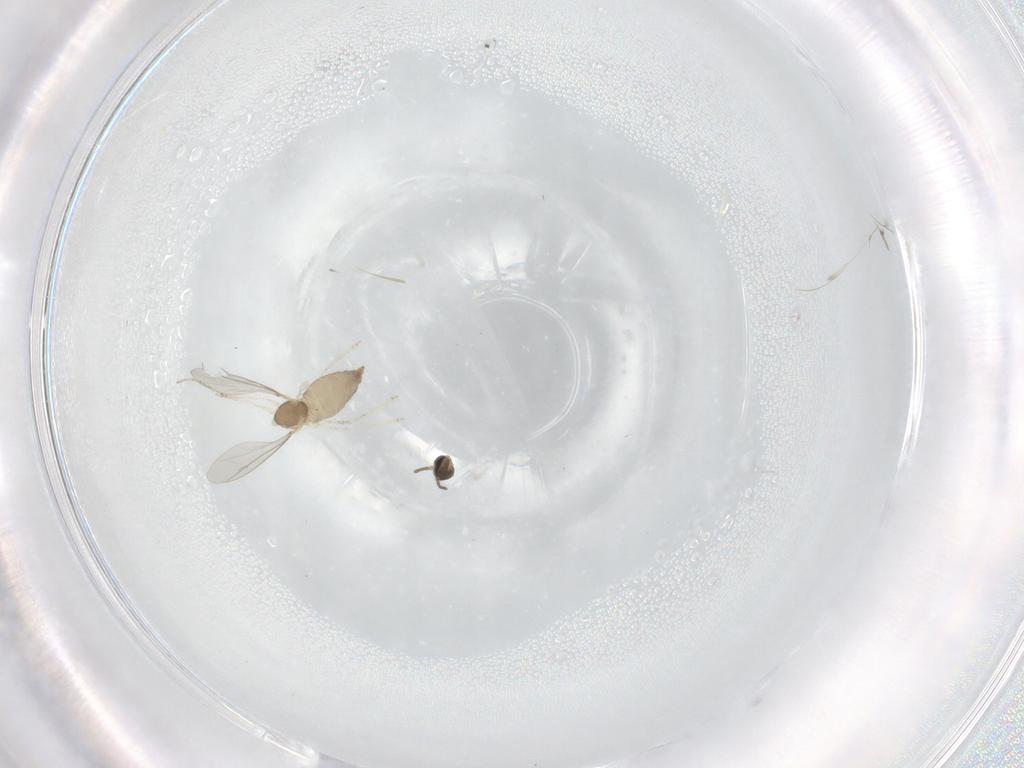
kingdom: Animalia
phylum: Arthropoda
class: Insecta
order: Diptera
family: Cecidomyiidae
